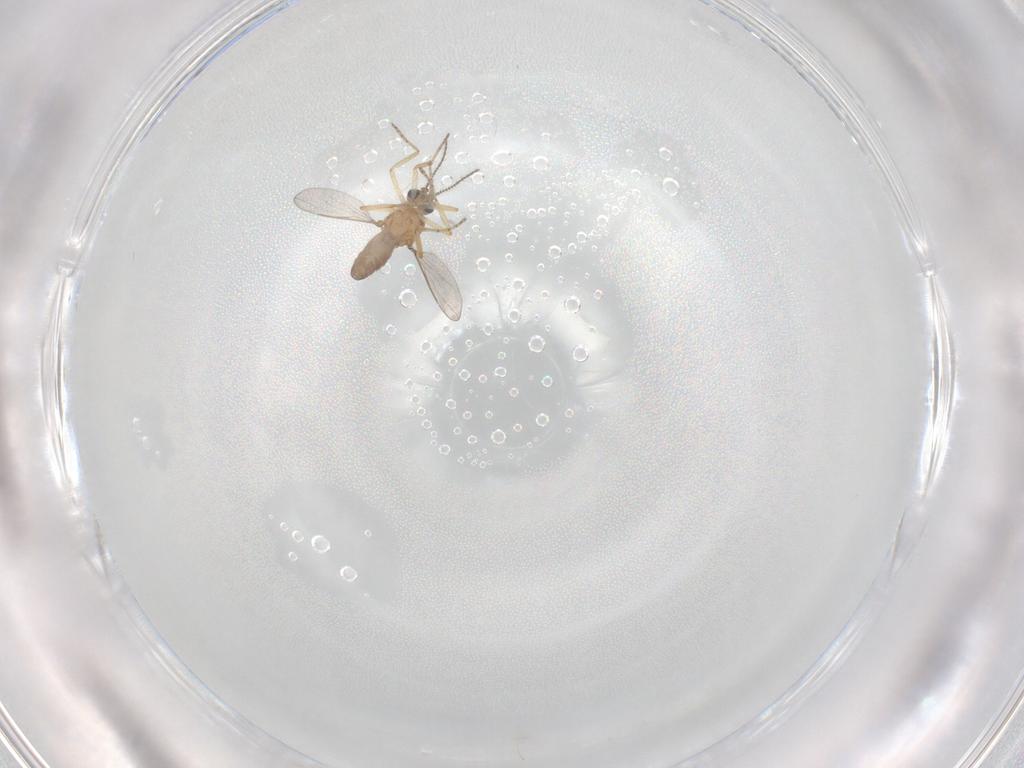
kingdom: Animalia
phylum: Arthropoda
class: Insecta
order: Diptera
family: Ceratopogonidae
